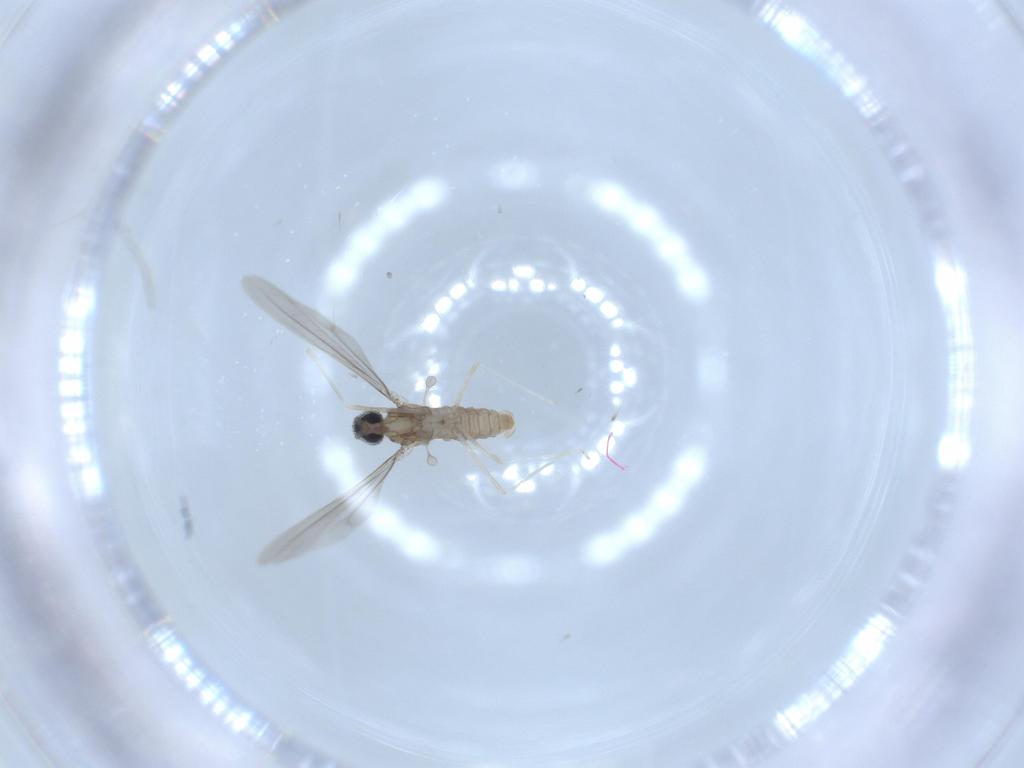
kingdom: Animalia
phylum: Arthropoda
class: Insecta
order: Diptera
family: Cecidomyiidae
